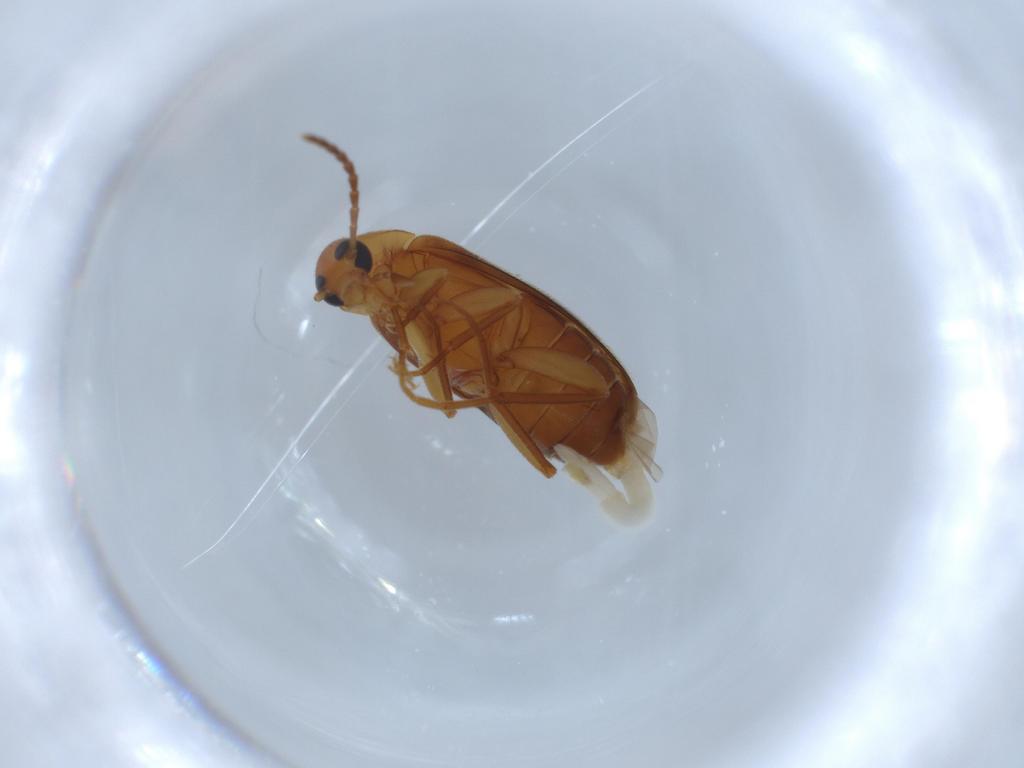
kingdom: Animalia
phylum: Arthropoda
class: Insecta
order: Coleoptera
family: Scraptiidae
